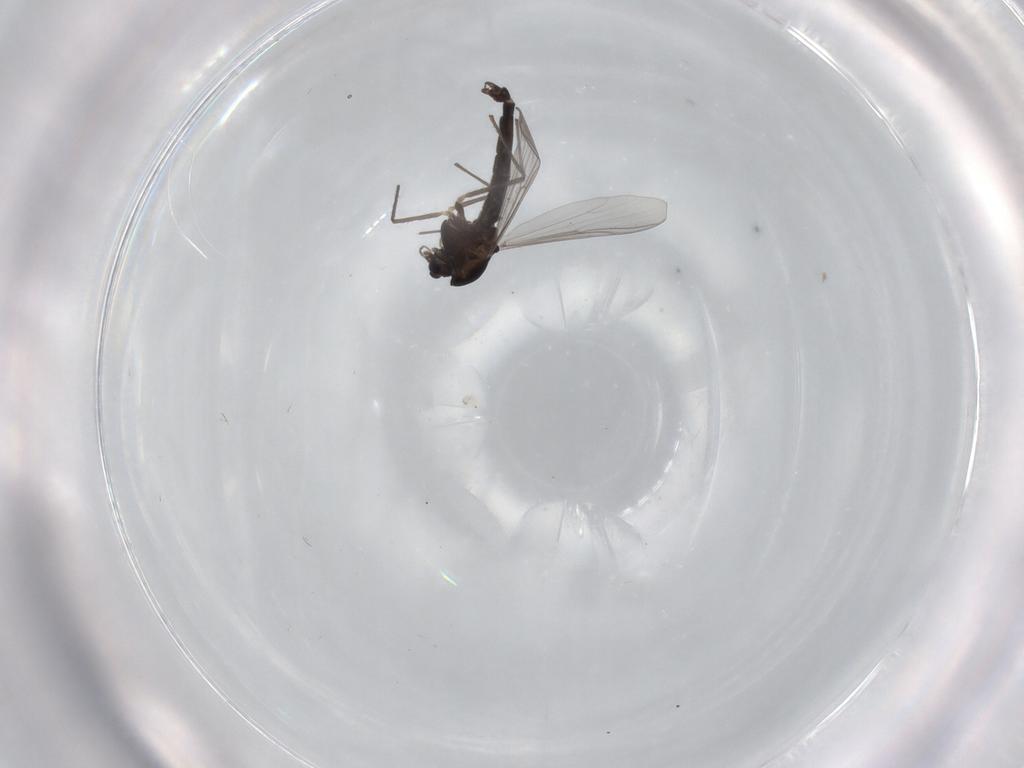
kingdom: Animalia
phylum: Arthropoda
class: Insecta
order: Diptera
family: Chironomidae
